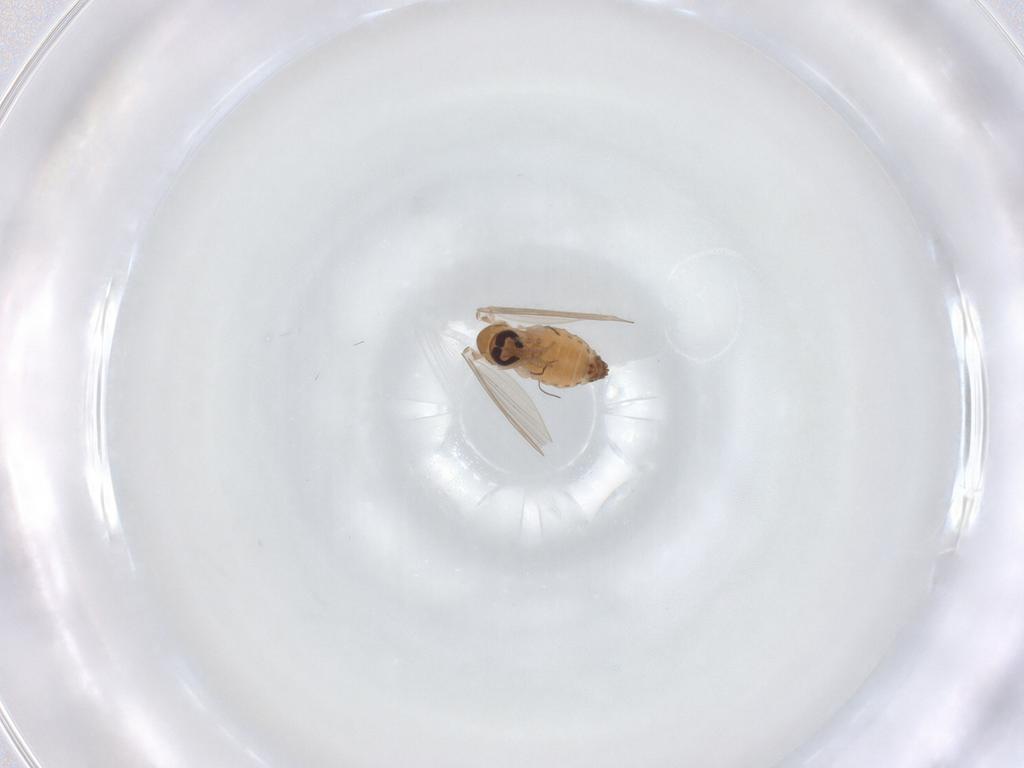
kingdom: Animalia
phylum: Arthropoda
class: Insecta
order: Diptera
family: Psychodidae
